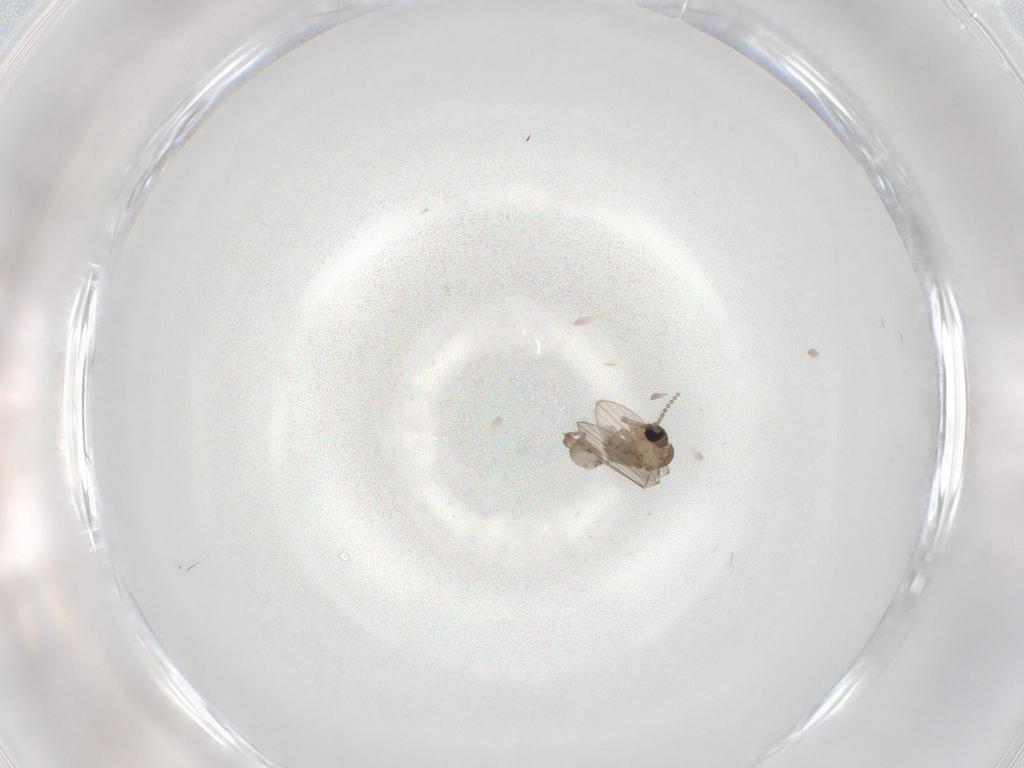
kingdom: Animalia
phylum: Arthropoda
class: Insecta
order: Diptera
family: Psychodidae
